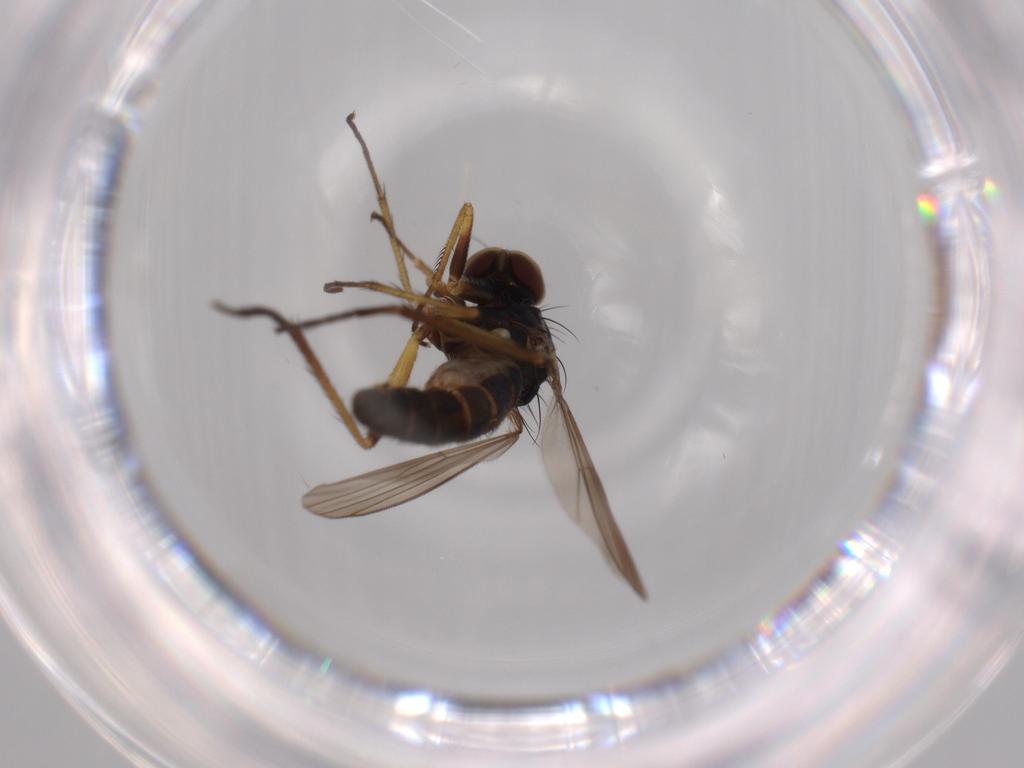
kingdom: Animalia
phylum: Arthropoda
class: Insecta
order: Diptera
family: Dolichopodidae
